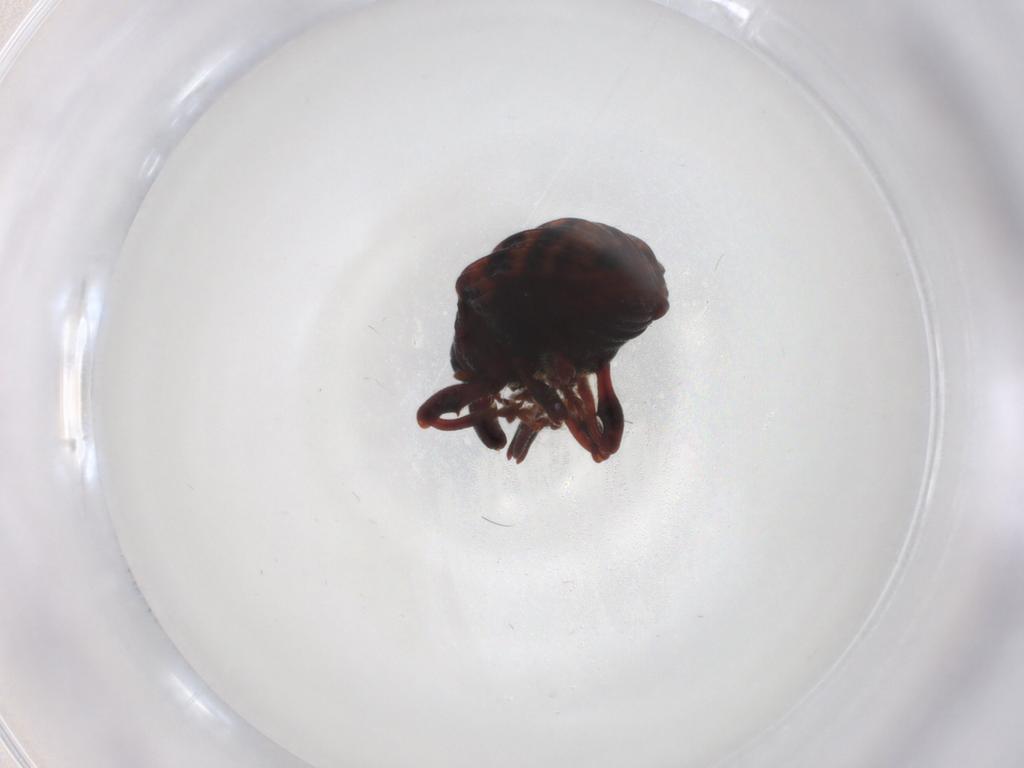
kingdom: Animalia
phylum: Arthropoda
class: Insecta
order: Coleoptera
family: Curculionidae
